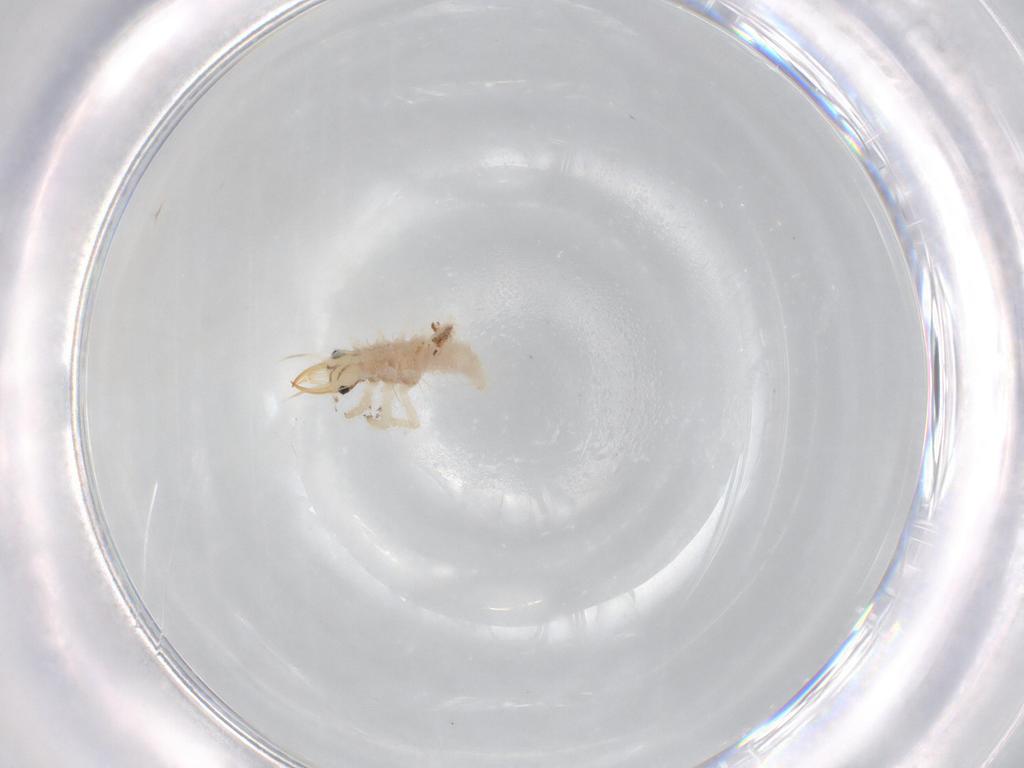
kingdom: Animalia
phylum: Arthropoda
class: Insecta
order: Neuroptera
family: Chrysopidae
